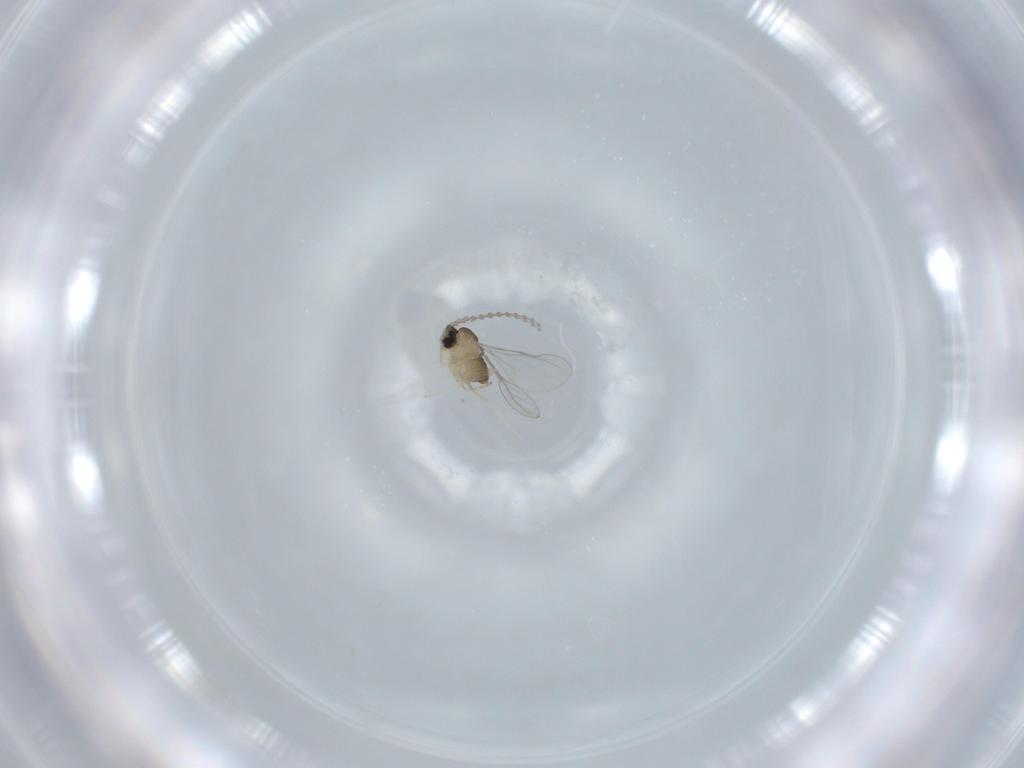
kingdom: Animalia
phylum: Arthropoda
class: Insecta
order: Diptera
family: Cecidomyiidae
